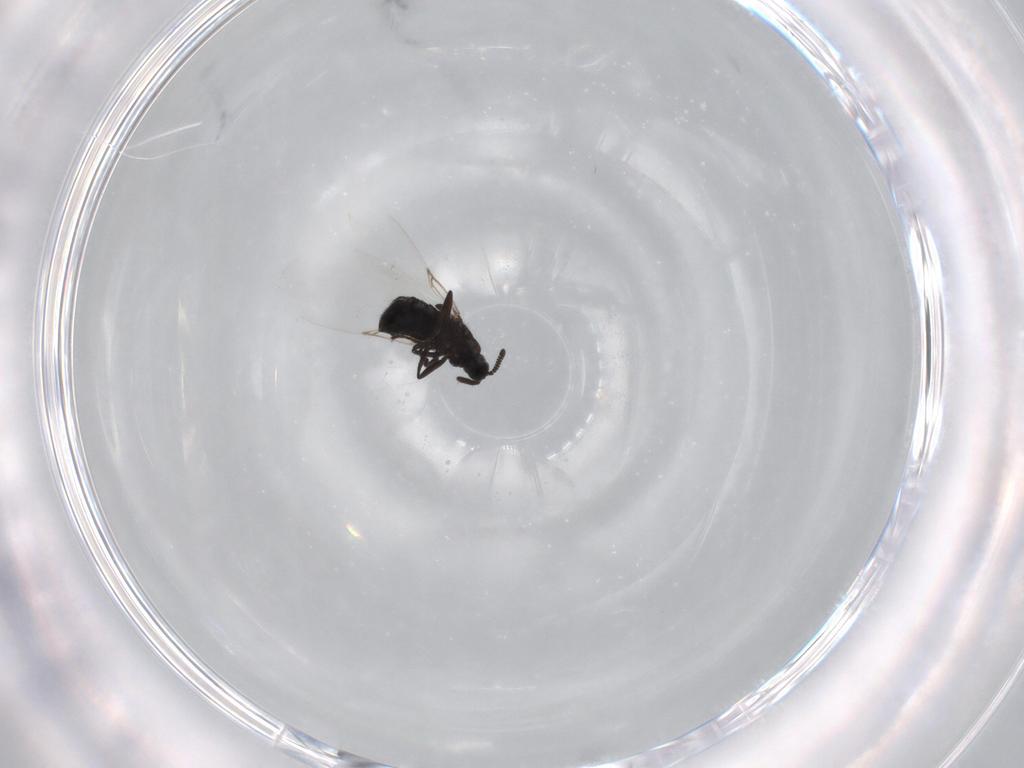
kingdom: Animalia
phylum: Arthropoda
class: Insecta
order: Diptera
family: Scatopsidae
